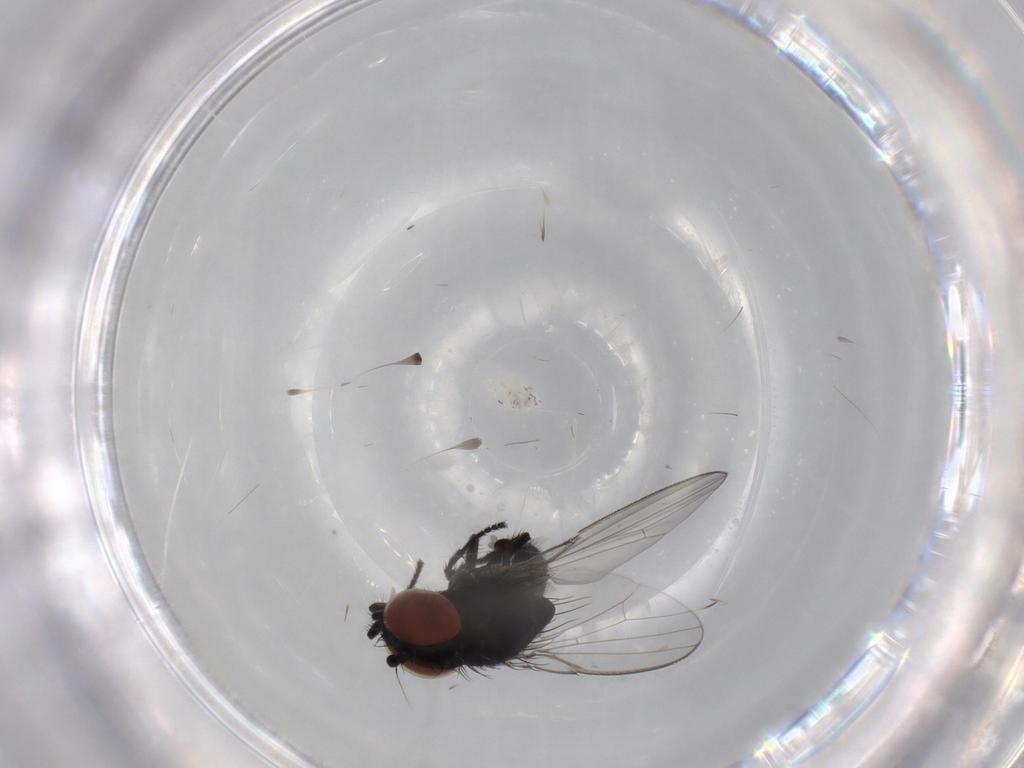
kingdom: Animalia
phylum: Arthropoda
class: Insecta
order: Diptera
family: Milichiidae
